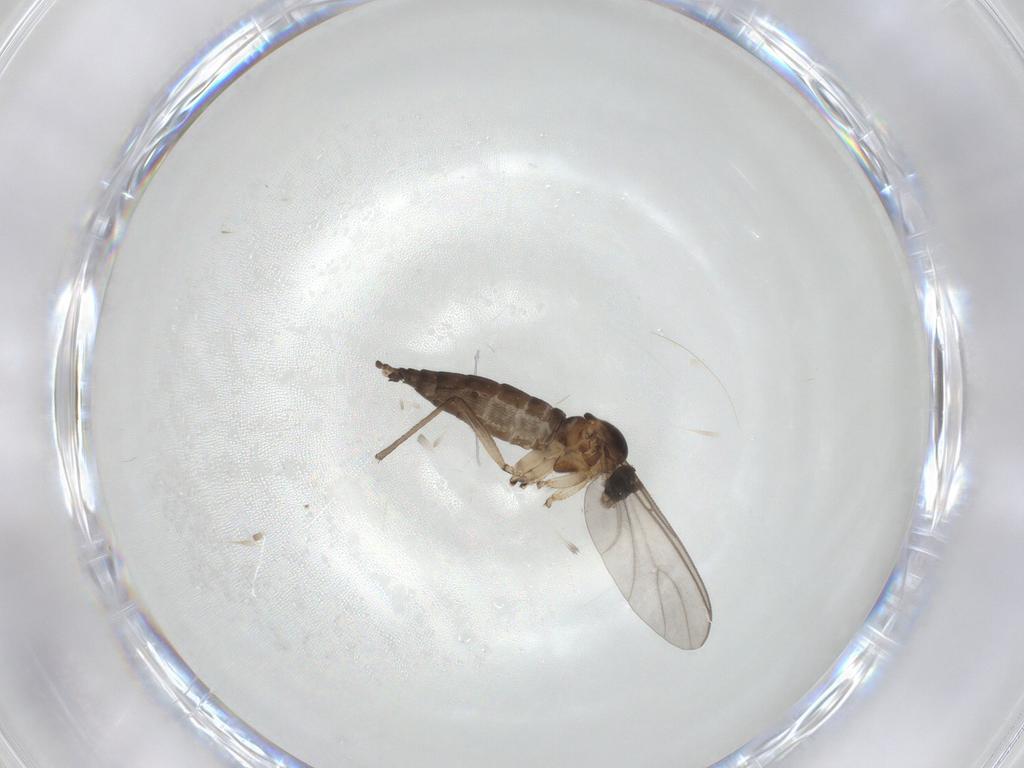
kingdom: Animalia
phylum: Arthropoda
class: Insecta
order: Diptera
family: Sciaridae
